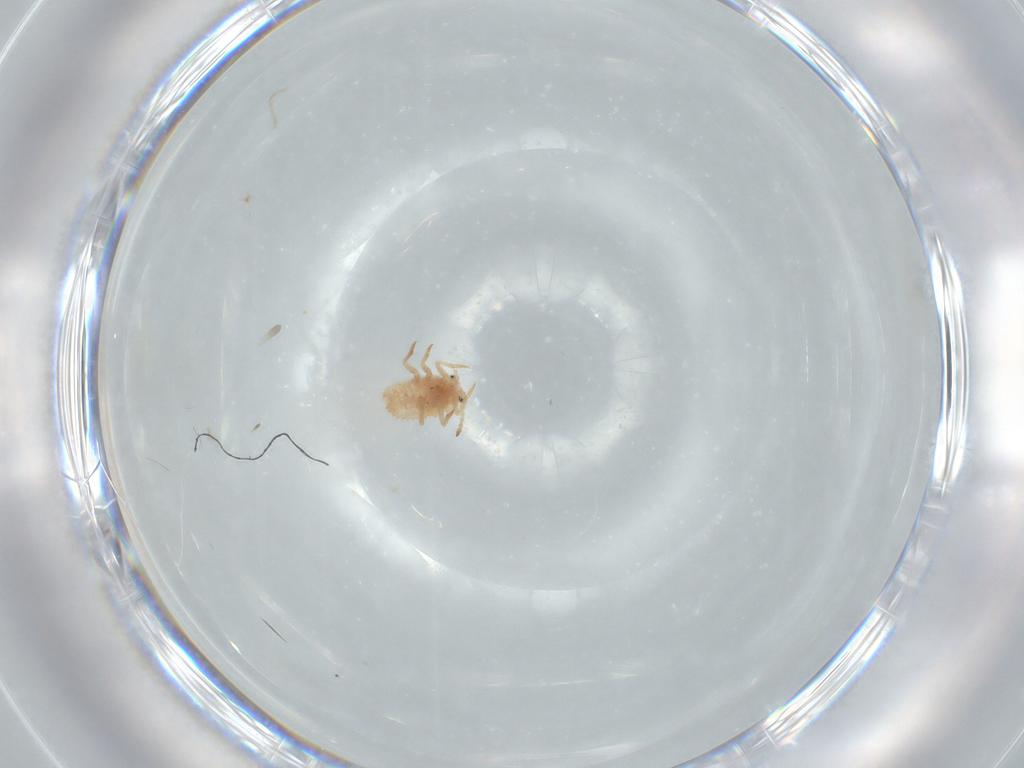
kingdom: Animalia
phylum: Arthropoda
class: Insecta
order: Hemiptera
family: Coccoidea_incertae_sedis
